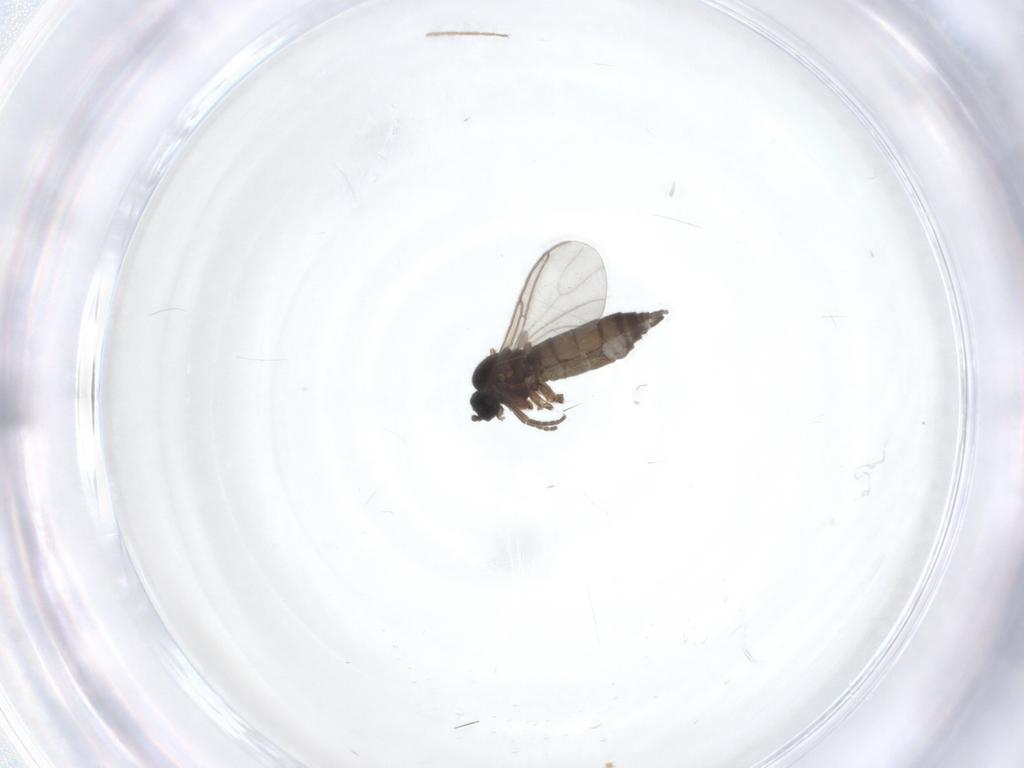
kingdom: Animalia
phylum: Arthropoda
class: Insecta
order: Diptera
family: Chironomidae
